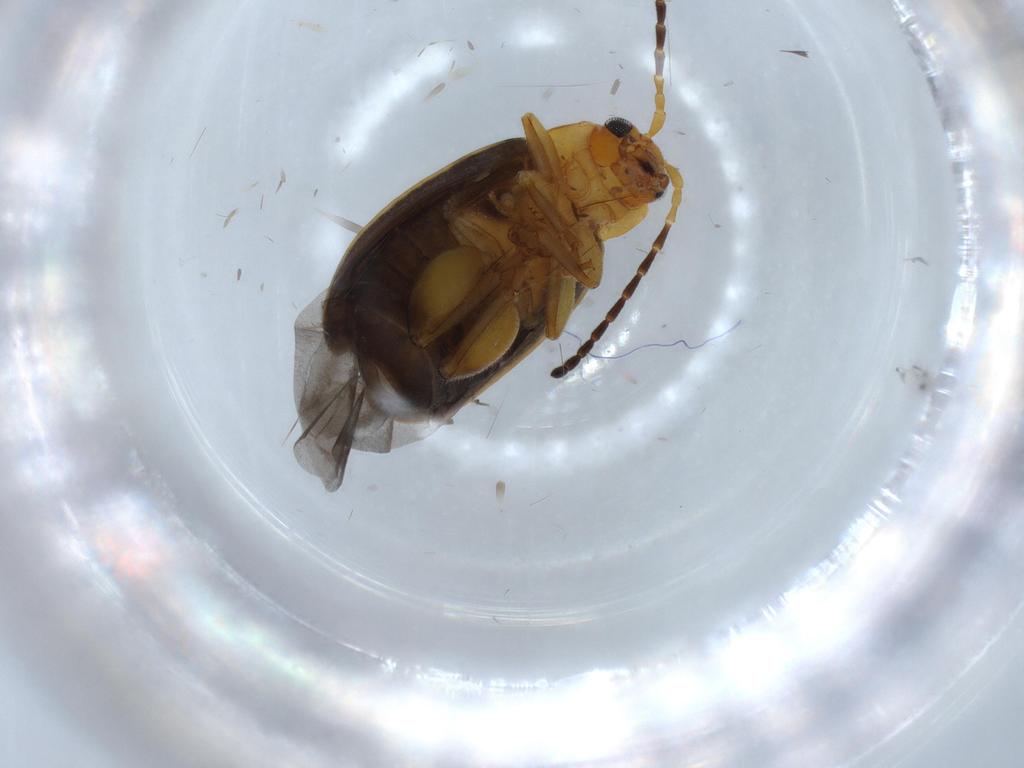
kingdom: Animalia
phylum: Arthropoda
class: Insecta
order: Coleoptera
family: Chrysomelidae
